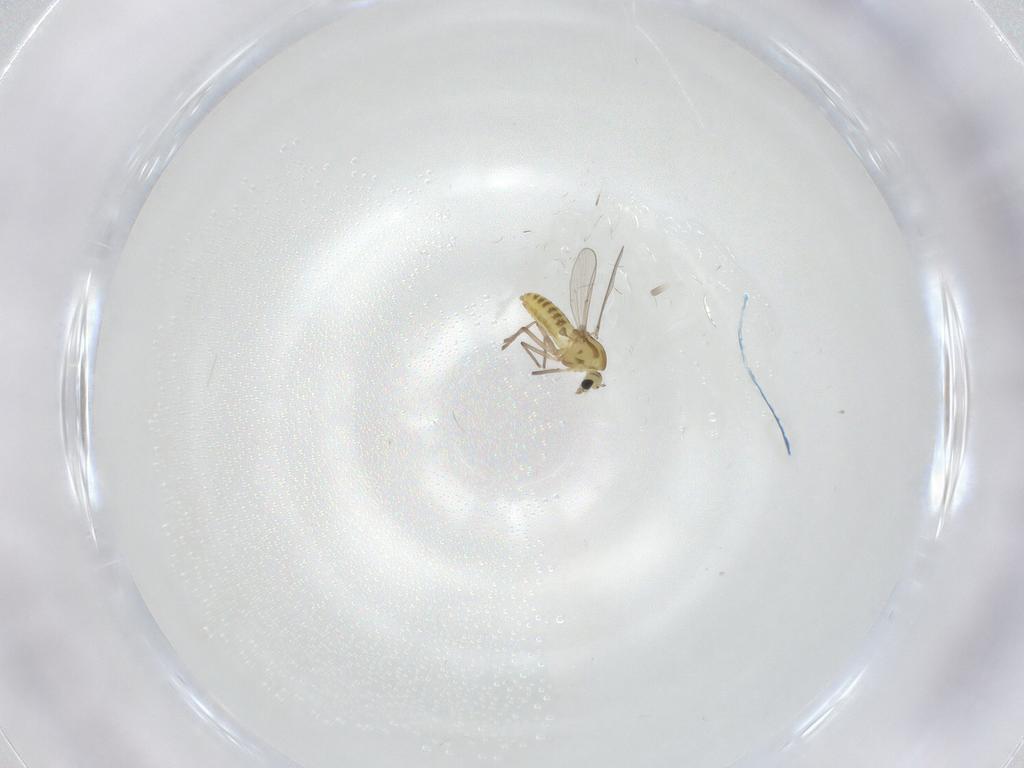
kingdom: Animalia
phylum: Arthropoda
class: Insecta
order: Diptera
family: Chironomidae
